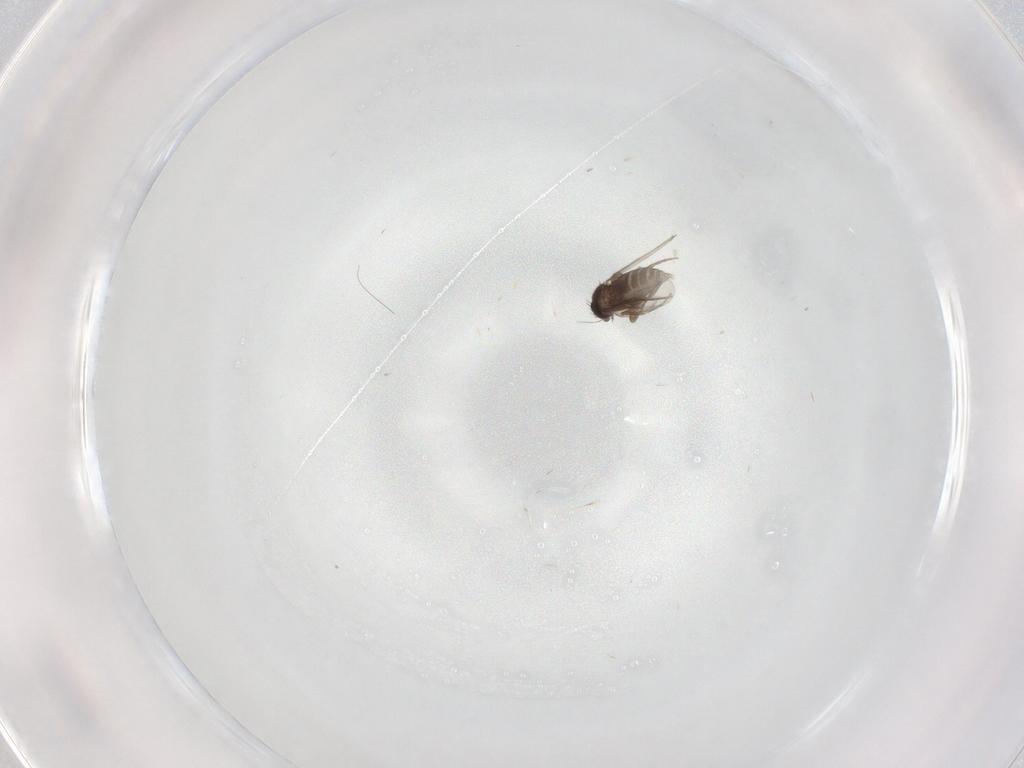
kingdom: Animalia
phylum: Arthropoda
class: Insecta
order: Diptera
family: Phoridae
